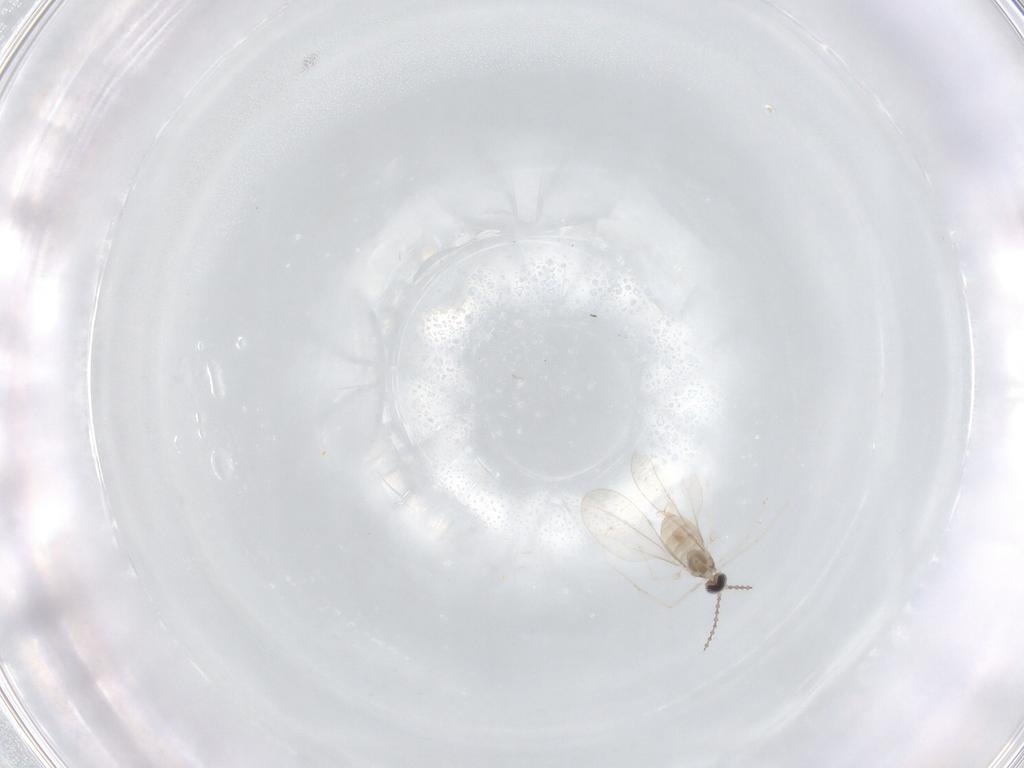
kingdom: Animalia
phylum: Arthropoda
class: Insecta
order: Diptera
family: Cecidomyiidae
